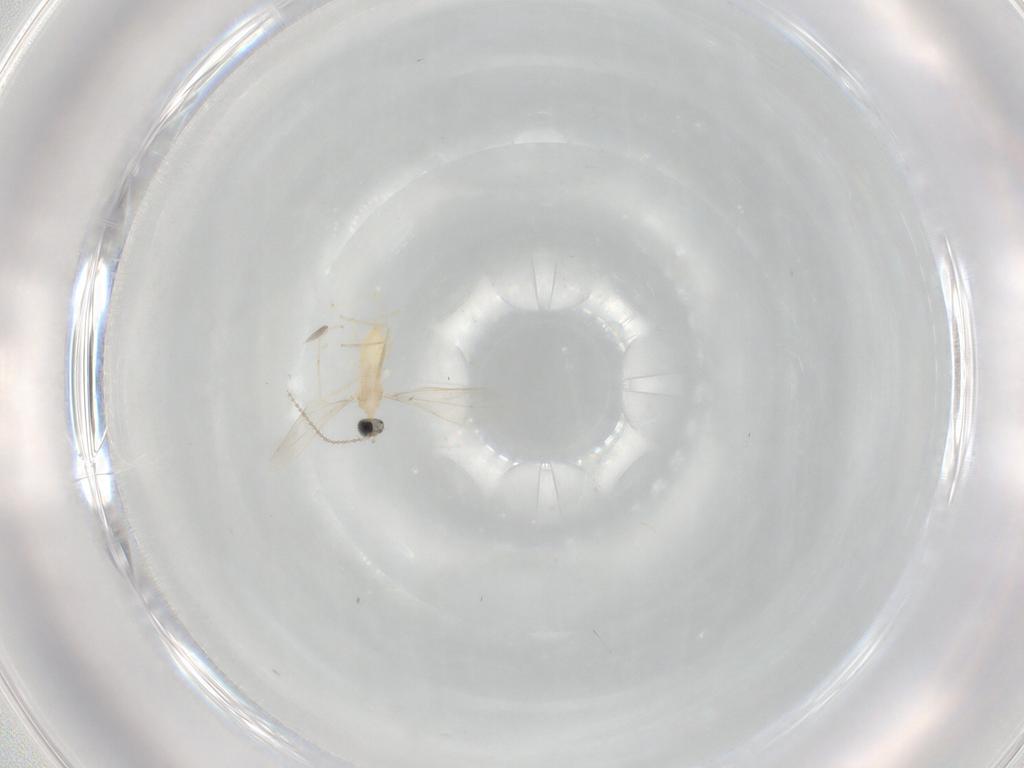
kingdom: Animalia
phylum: Arthropoda
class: Insecta
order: Diptera
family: Cecidomyiidae
